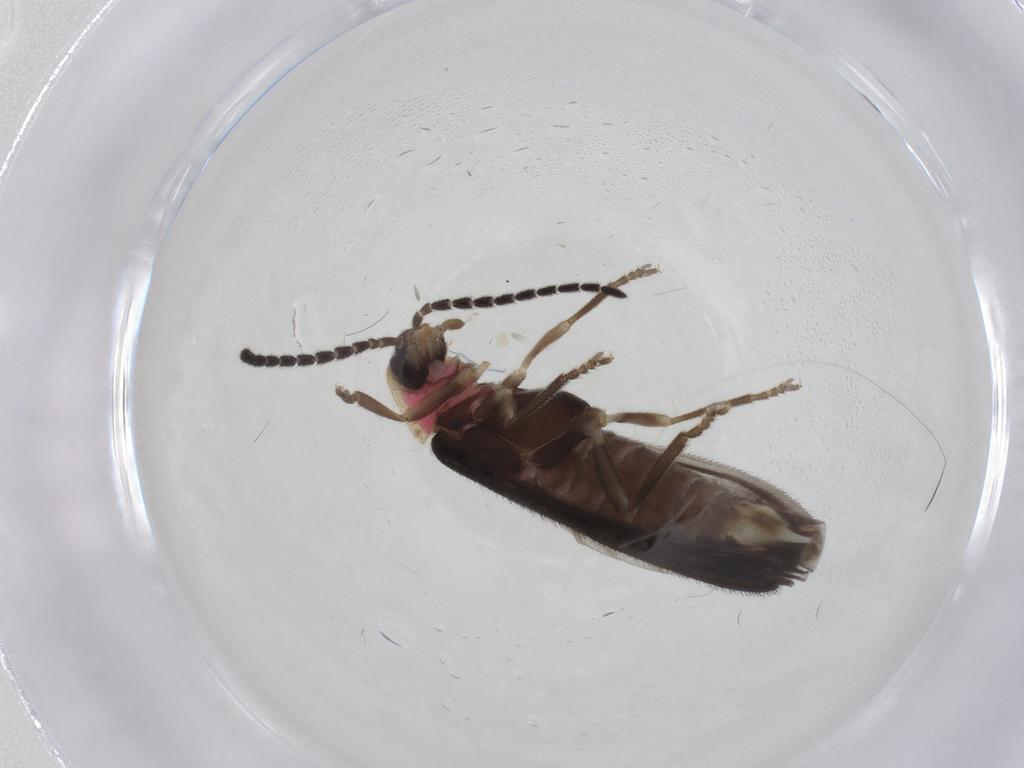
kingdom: Animalia
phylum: Arthropoda
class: Insecta
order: Coleoptera
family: Lampyridae
